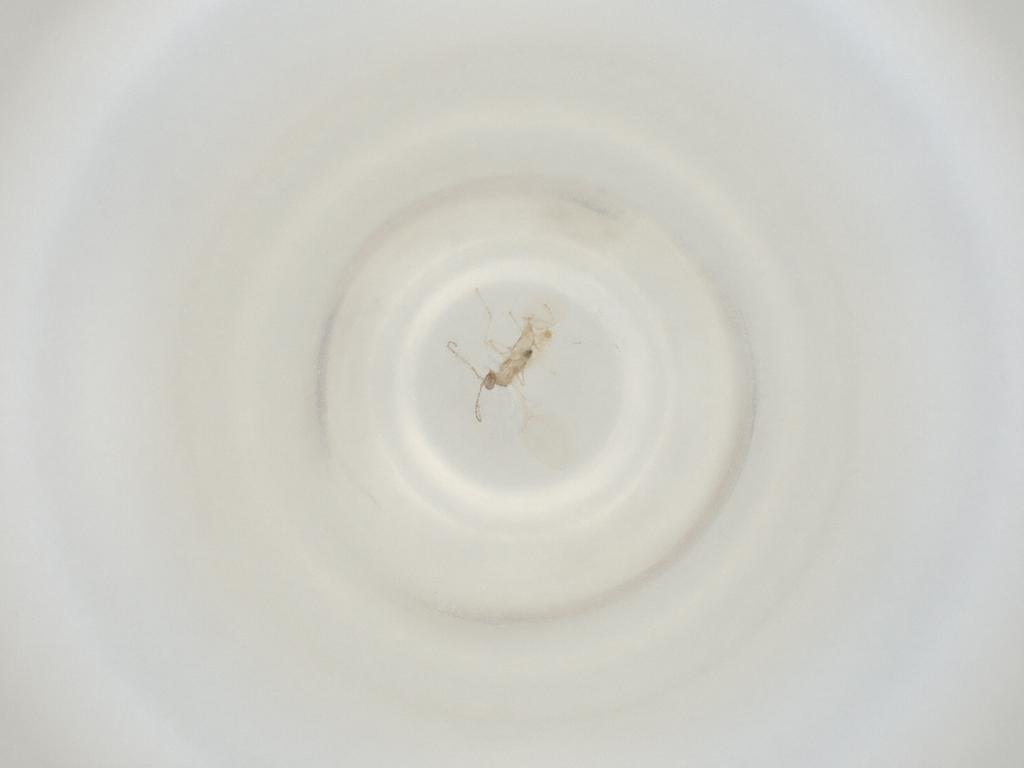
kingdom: Animalia
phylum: Arthropoda
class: Insecta
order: Diptera
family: Cecidomyiidae
